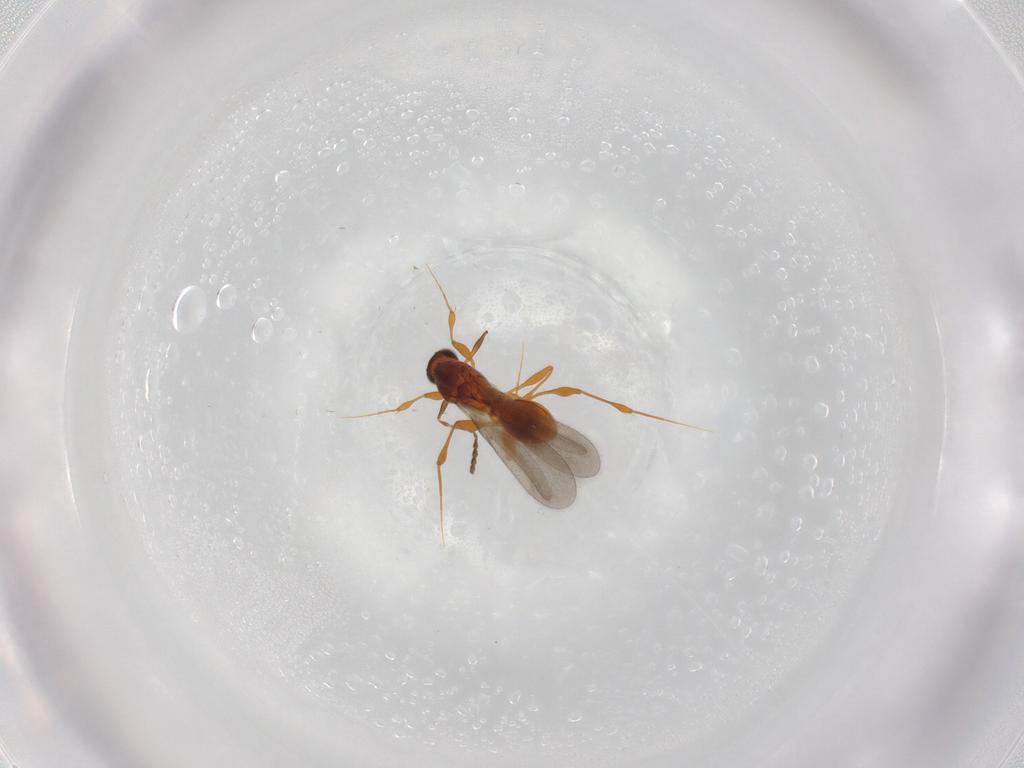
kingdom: Animalia
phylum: Arthropoda
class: Insecta
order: Hymenoptera
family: Platygastridae
